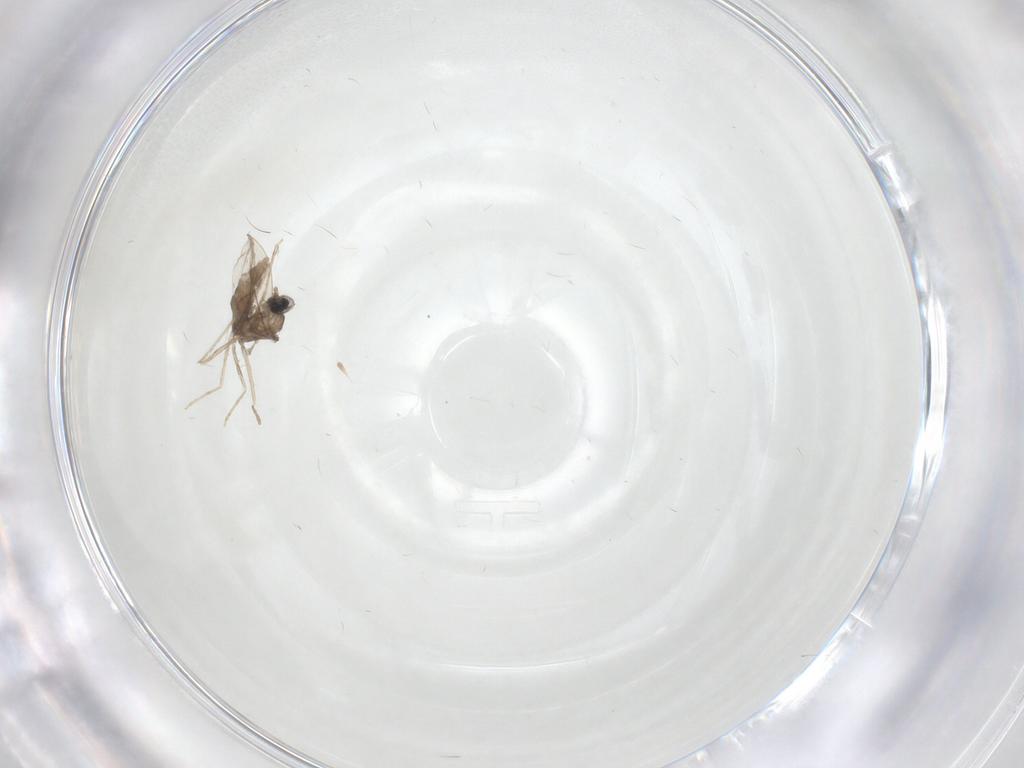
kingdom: Animalia
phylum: Arthropoda
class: Insecta
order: Diptera
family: Cecidomyiidae
